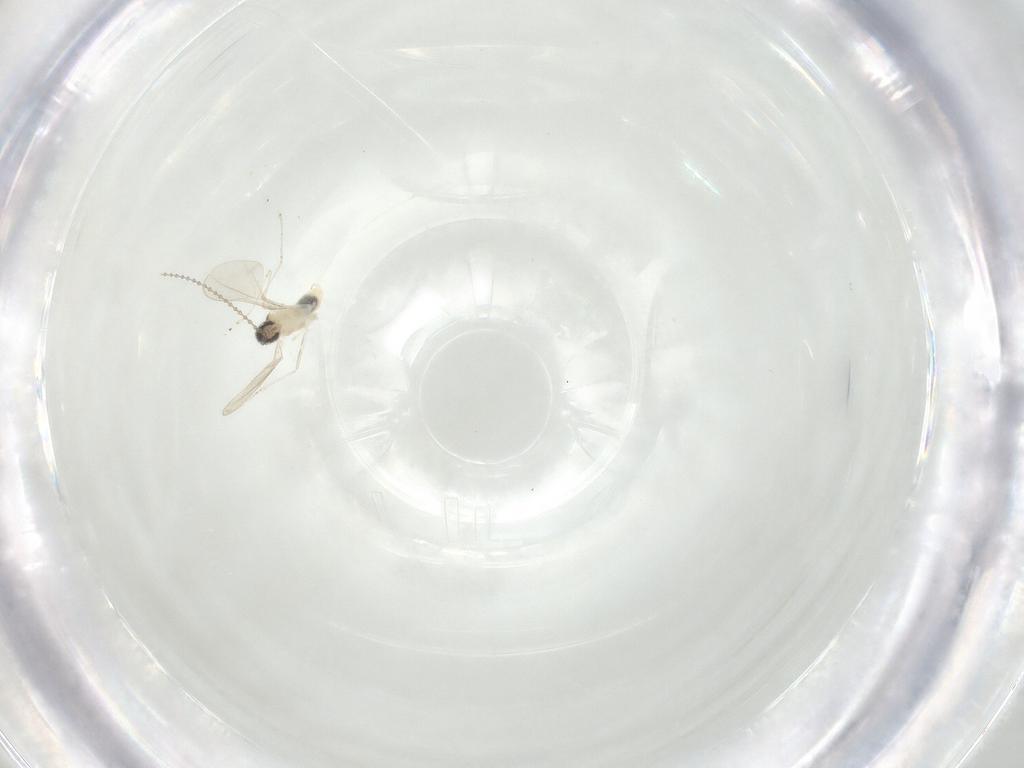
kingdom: Animalia
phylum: Arthropoda
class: Insecta
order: Diptera
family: Cecidomyiidae
